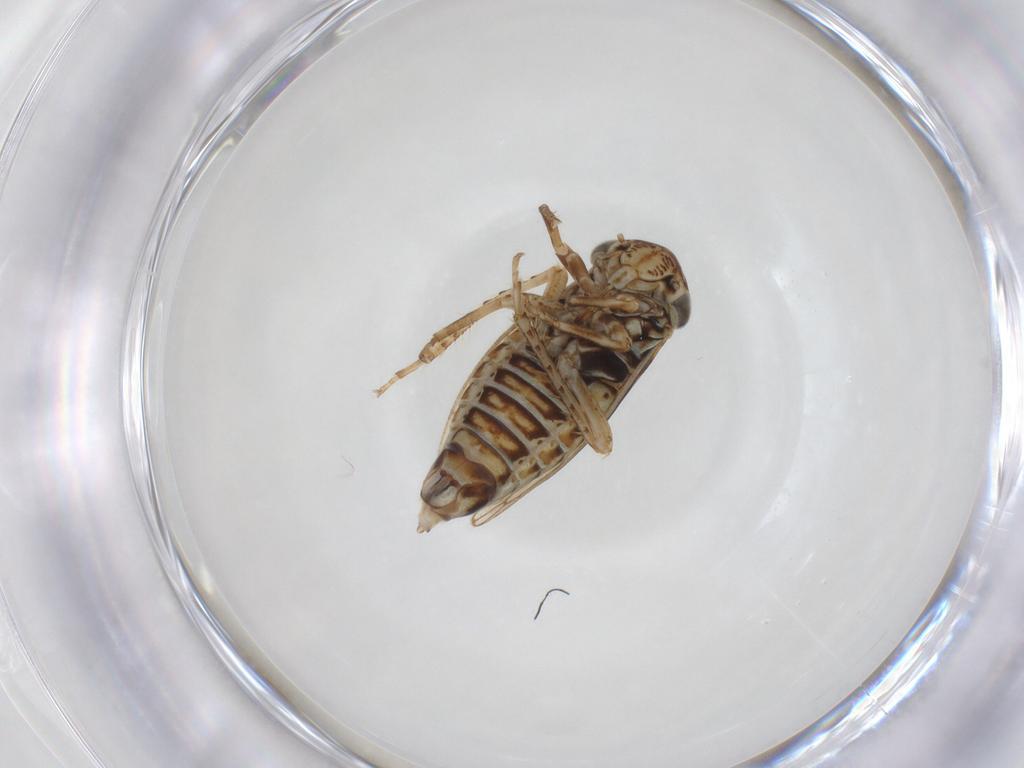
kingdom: Animalia
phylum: Arthropoda
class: Insecta
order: Hemiptera
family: Cicadellidae
